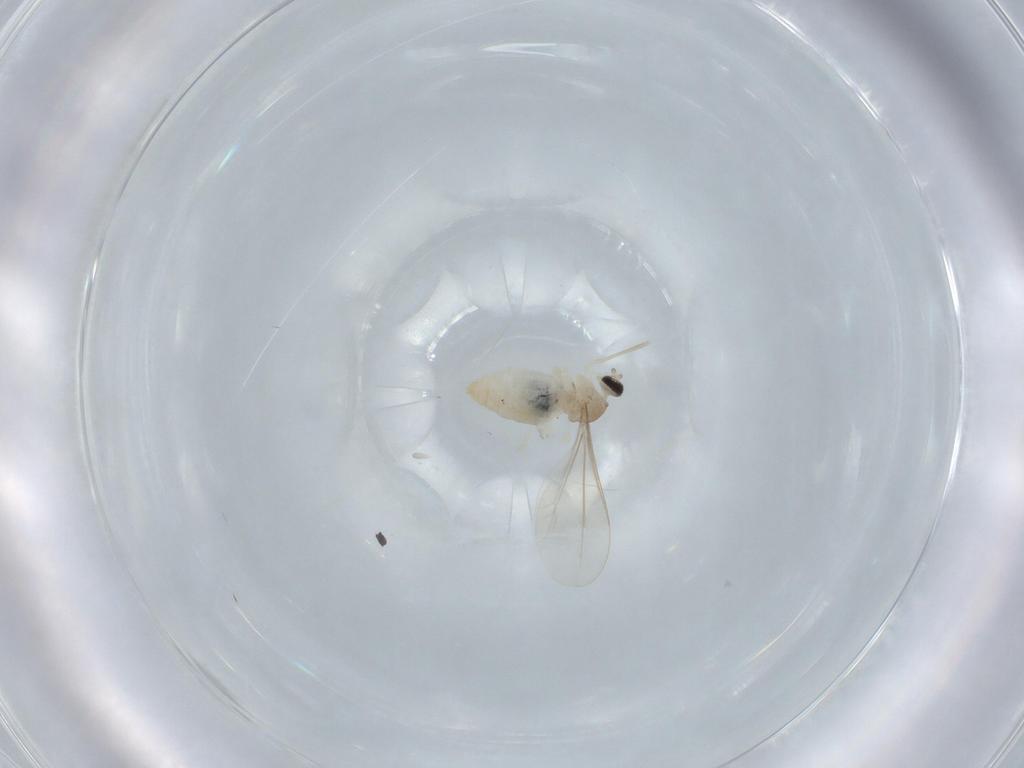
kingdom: Animalia
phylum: Arthropoda
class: Insecta
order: Diptera
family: Cecidomyiidae
